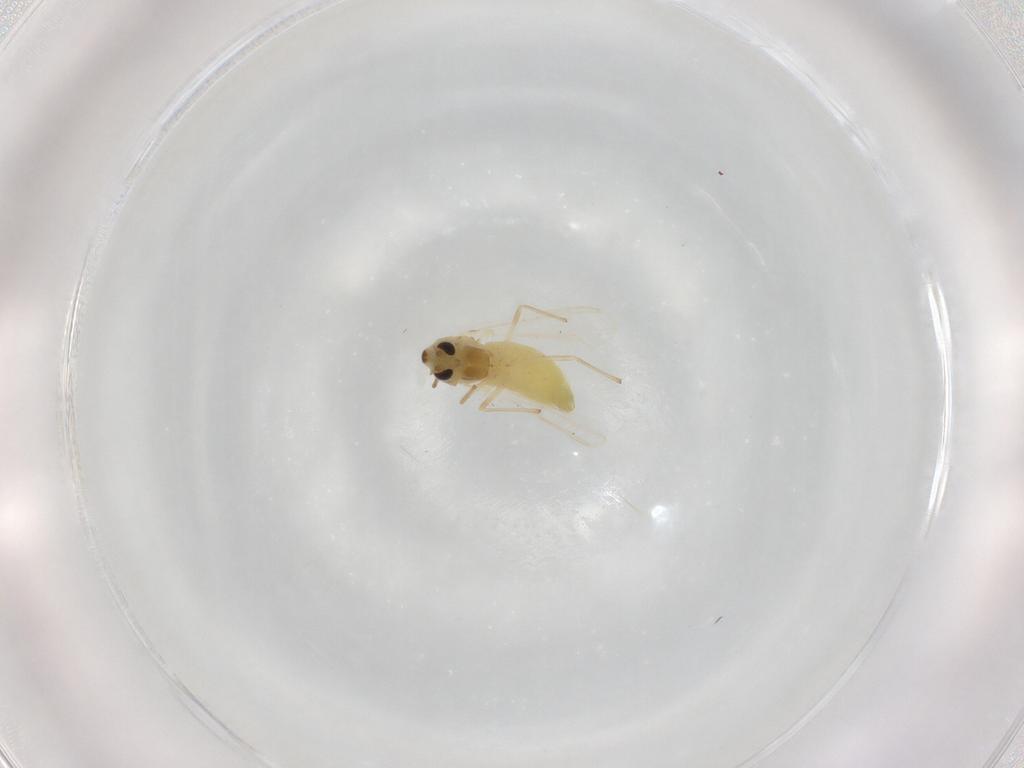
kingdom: Animalia
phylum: Arthropoda
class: Insecta
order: Diptera
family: Chironomidae
